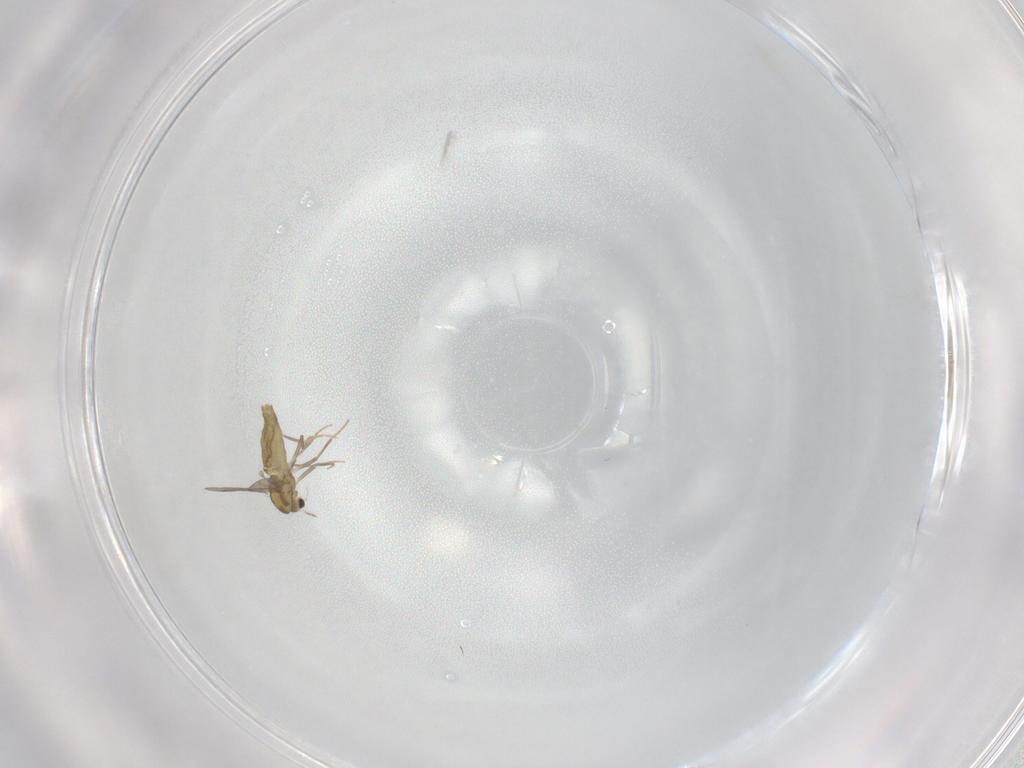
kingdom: Animalia
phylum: Arthropoda
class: Insecta
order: Diptera
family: Chironomidae
